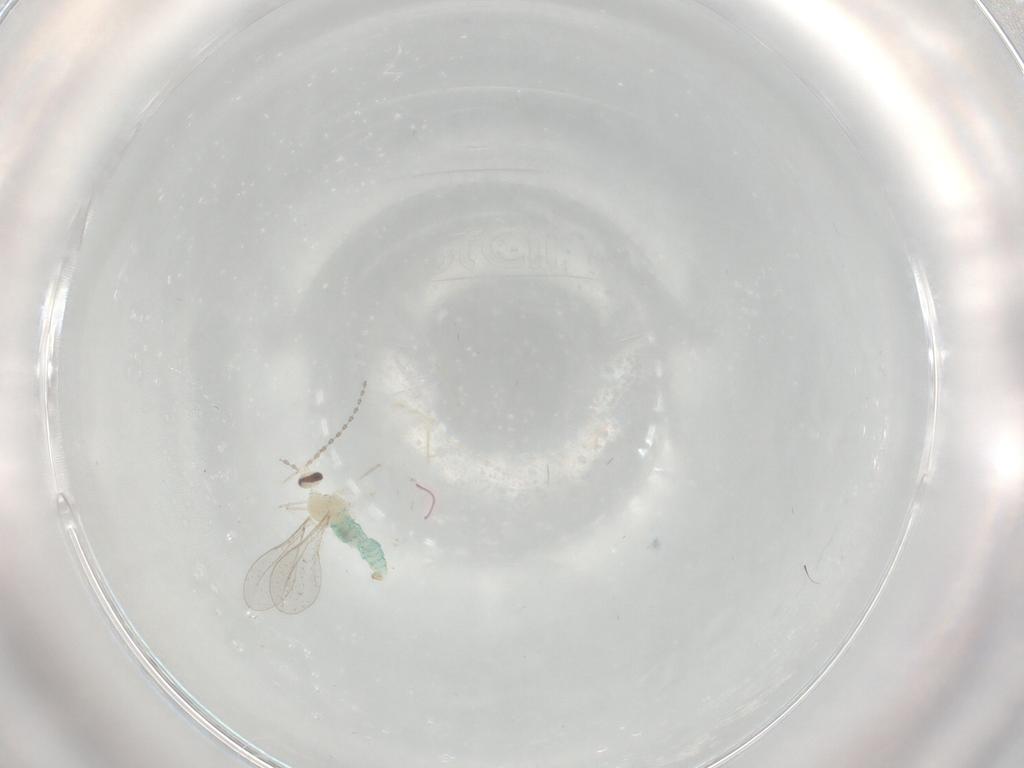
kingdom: Animalia
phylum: Arthropoda
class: Insecta
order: Diptera
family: Cecidomyiidae
